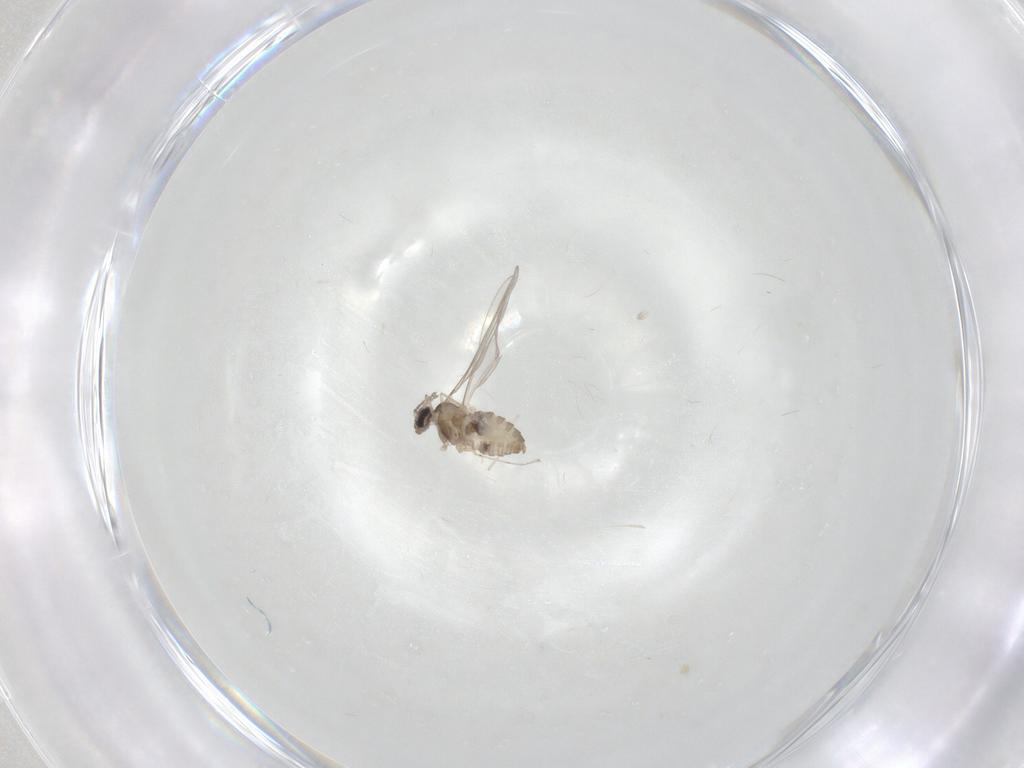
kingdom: Animalia
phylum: Arthropoda
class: Insecta
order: Diptera
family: Cecidomyiidae
